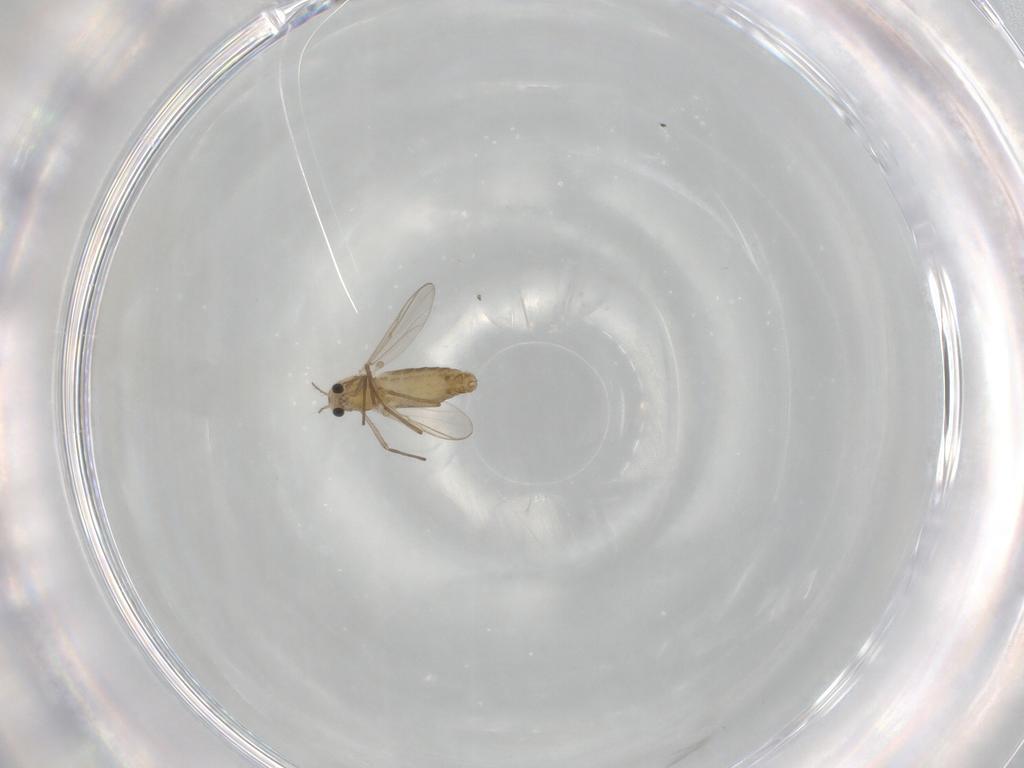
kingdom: Animalia
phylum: Arthropoda
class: Insecta
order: Diptera
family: Chironomidae
